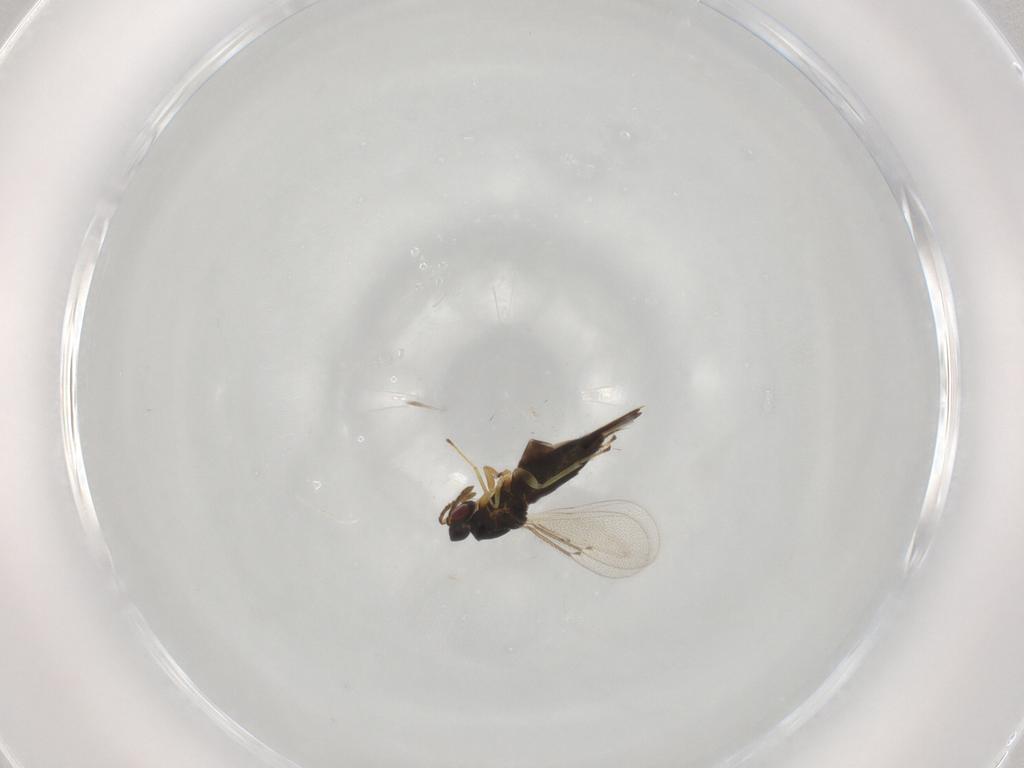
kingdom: Animalia
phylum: Arthropoda
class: Insecta
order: Hymenoptera
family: Eulophidae
